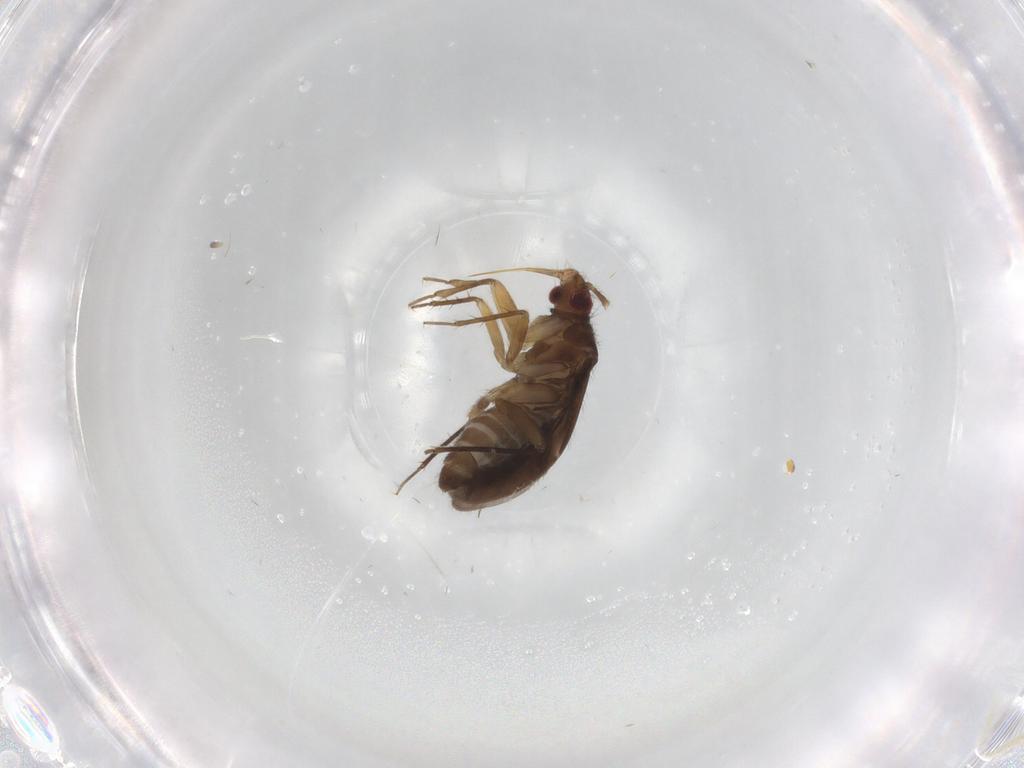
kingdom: Animalia
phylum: Arthropoda
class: Insecta
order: Hemiptera
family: Ceratocombidae
